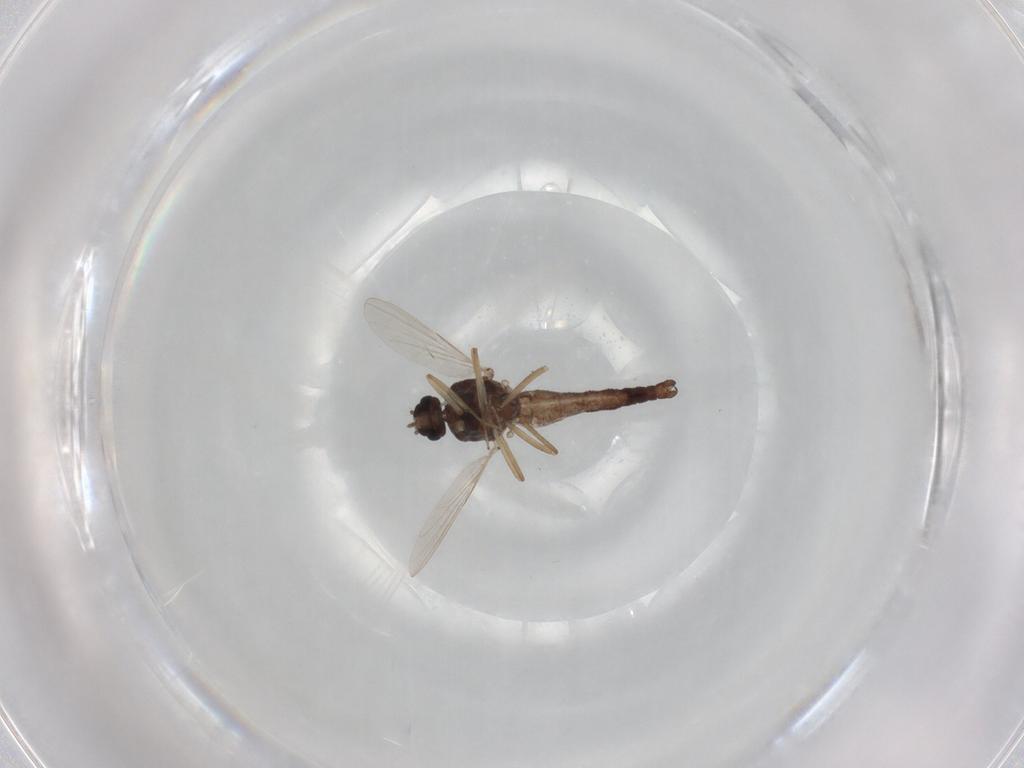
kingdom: Animalia
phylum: Arthropoda
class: Insecta
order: Diptera
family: Ceratopogonidae
